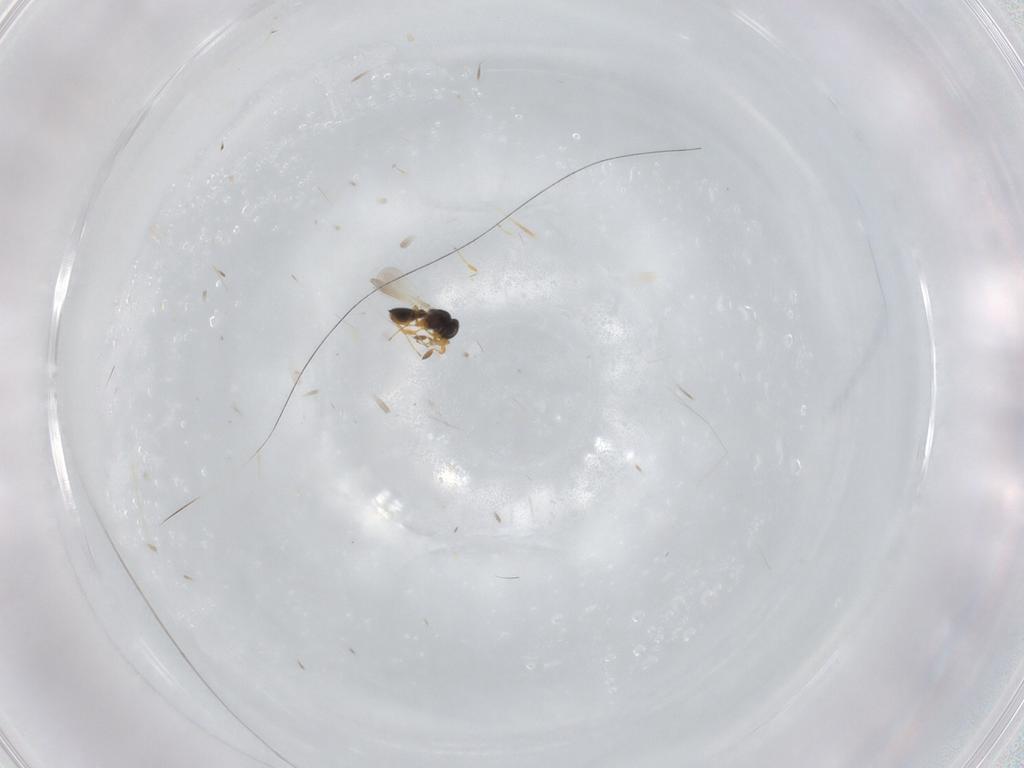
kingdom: Animalia
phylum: Arthropoda
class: Insecta
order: Hymenoptera
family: Platygastridae
